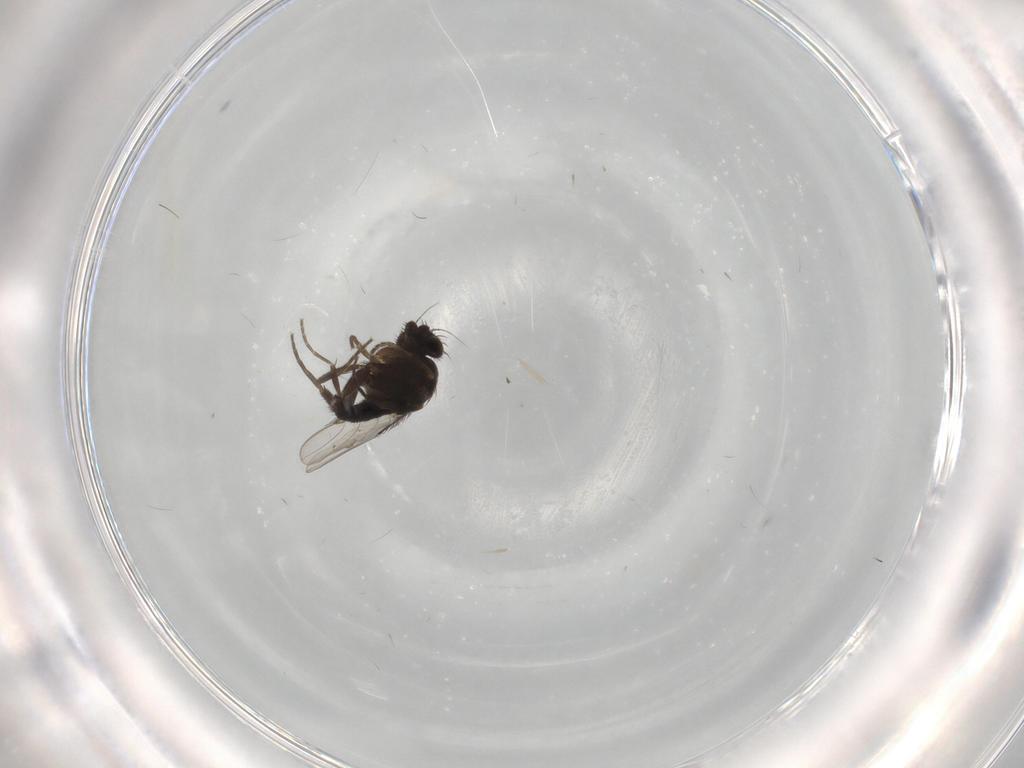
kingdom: Animalia
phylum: Arthropoda
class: Insecta
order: Diptera
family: Phoridae
